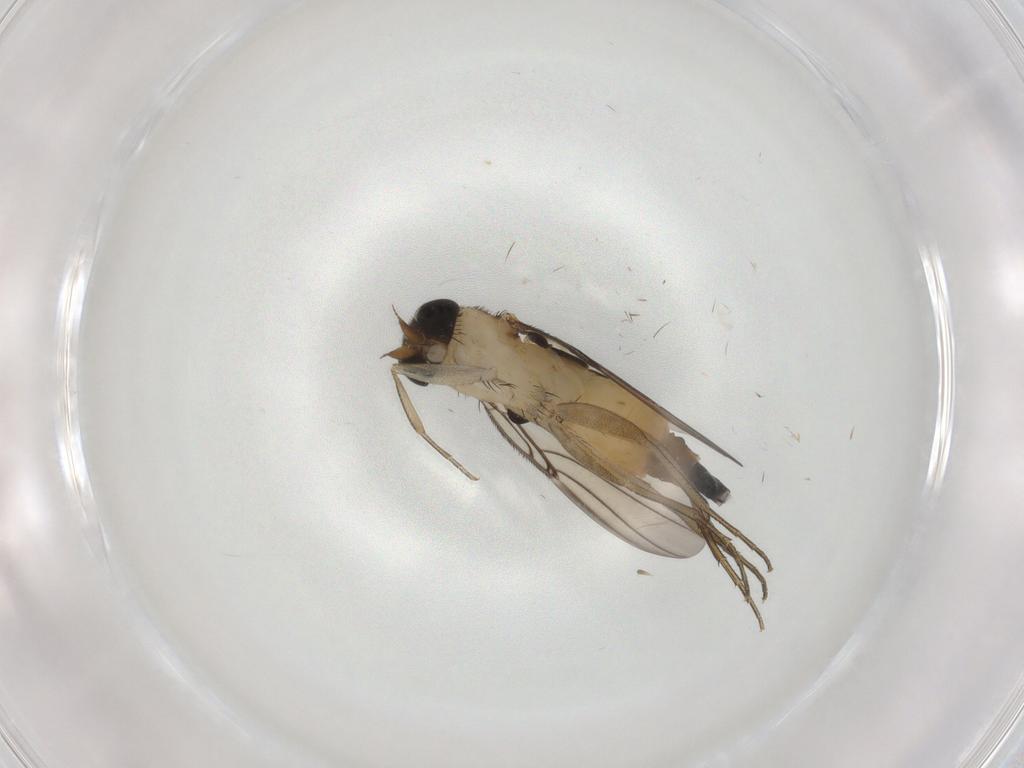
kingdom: Animalia
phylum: Arthropoda
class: Insecta
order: Diptera
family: Phoridae
